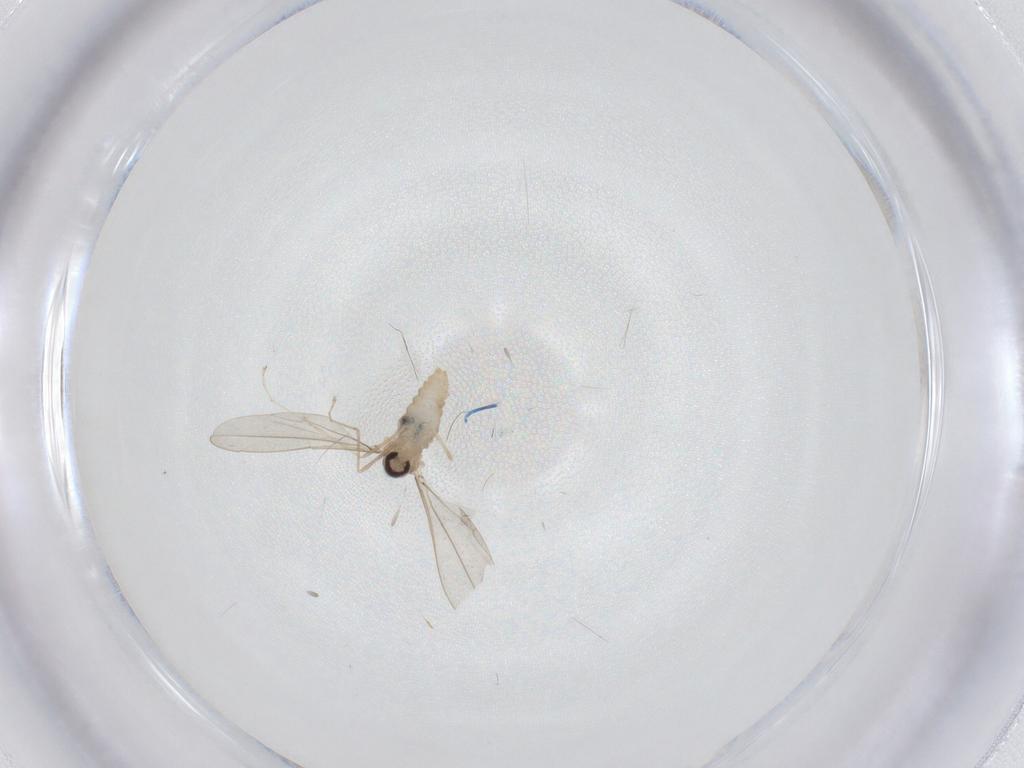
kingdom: Animalia
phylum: Arthropoda
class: Insecta
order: Diptera
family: Cecidomyiidae
